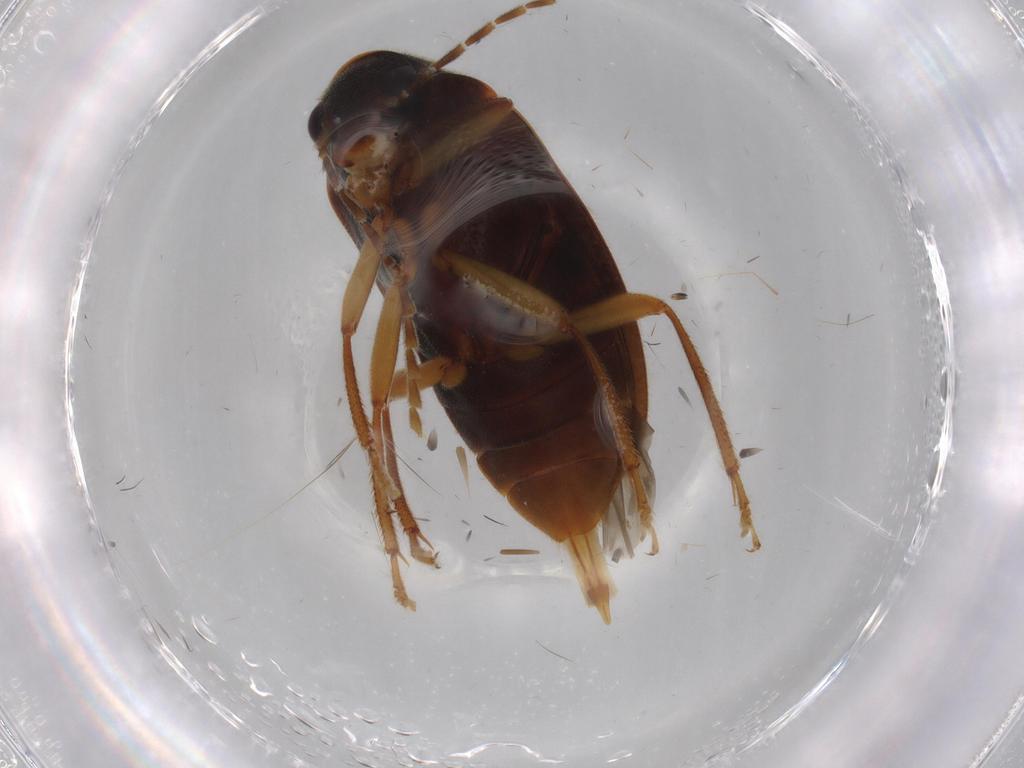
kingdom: Animalia
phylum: Arthropoda
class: Insecta
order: Coleoptera
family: Ptilodactylidae
